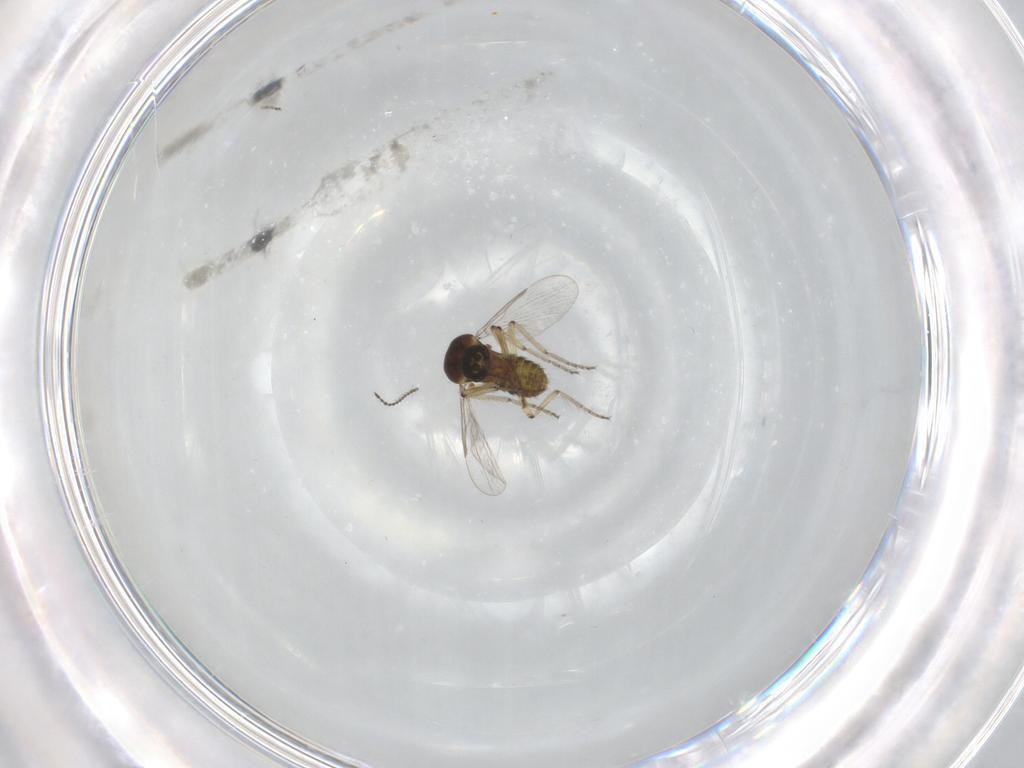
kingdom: Animalia
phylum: Arthropoda
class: Insecta
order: Diptera
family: Ceratopogonidae
